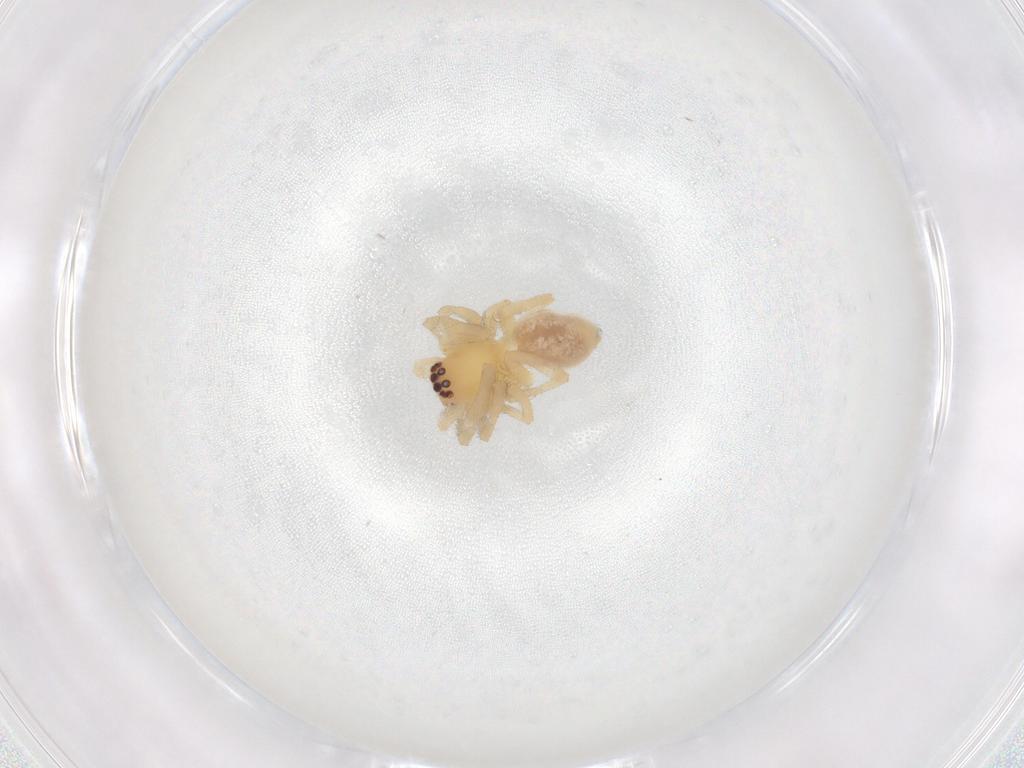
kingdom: Animalia
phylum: Arthropoda
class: Arachnida
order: Araneae
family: Cheiracanthiidae
